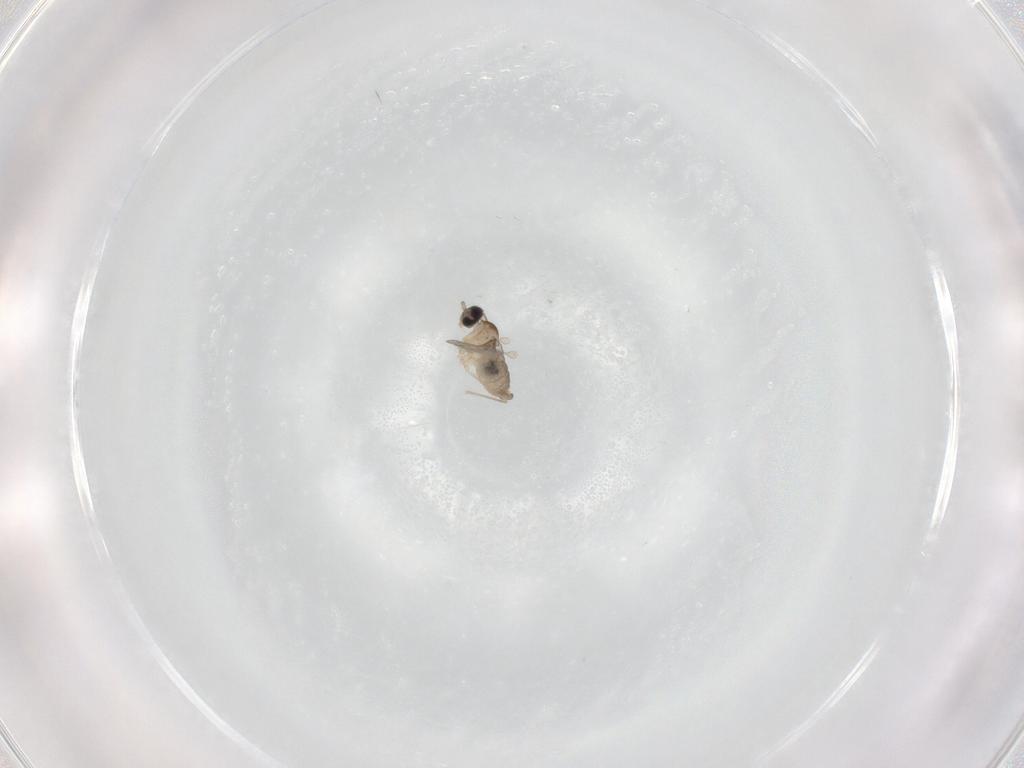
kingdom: Animalia
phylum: Arthropoda
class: Insecta
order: Diptera
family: Cecidomyiidae
